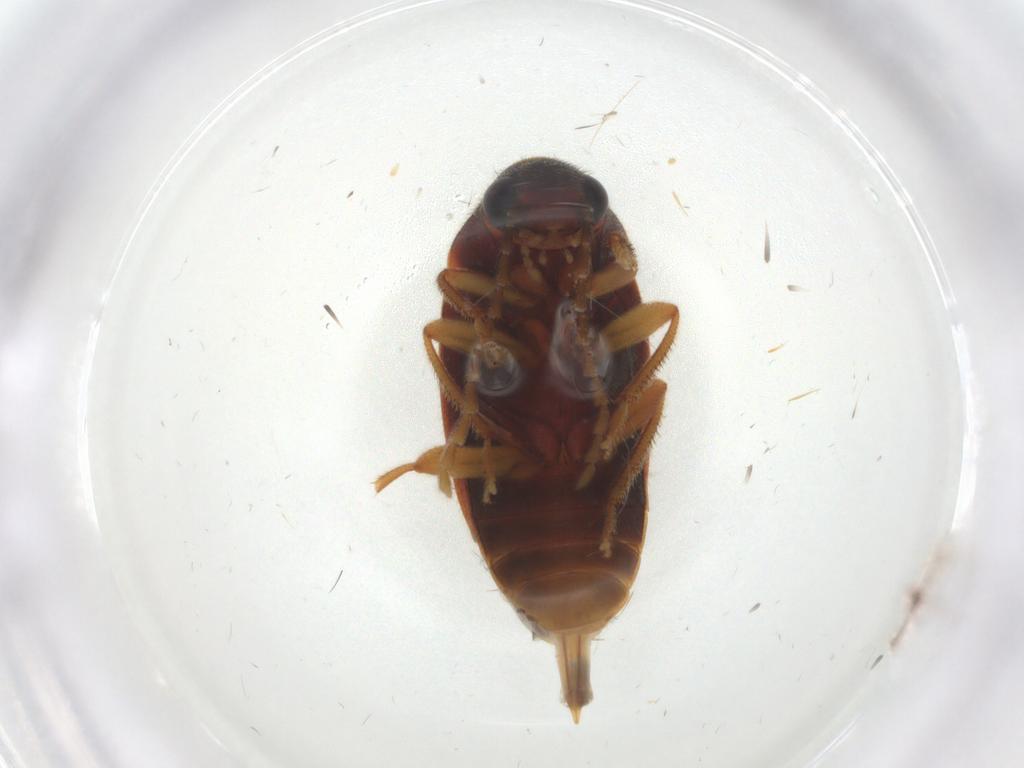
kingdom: Animalia
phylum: Arthropoda
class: Insecta
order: Coleoptera
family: Ptilodactylidae
